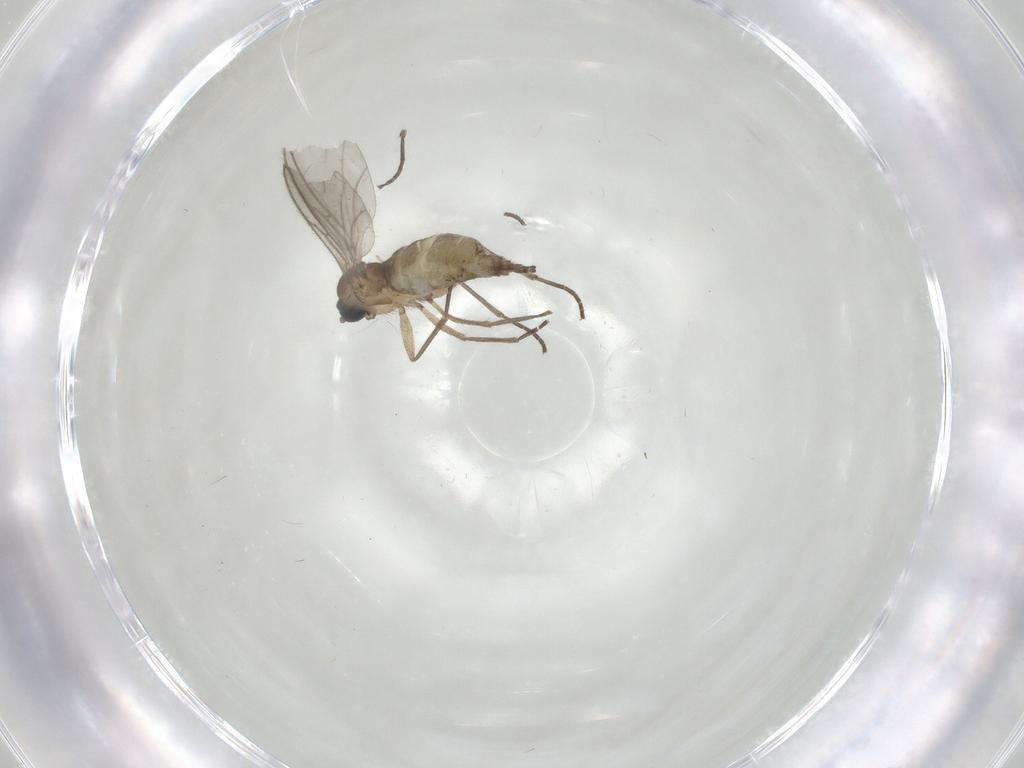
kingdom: Animalia
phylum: Arthropoda
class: Insecta
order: Diptera
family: Sciaridae
